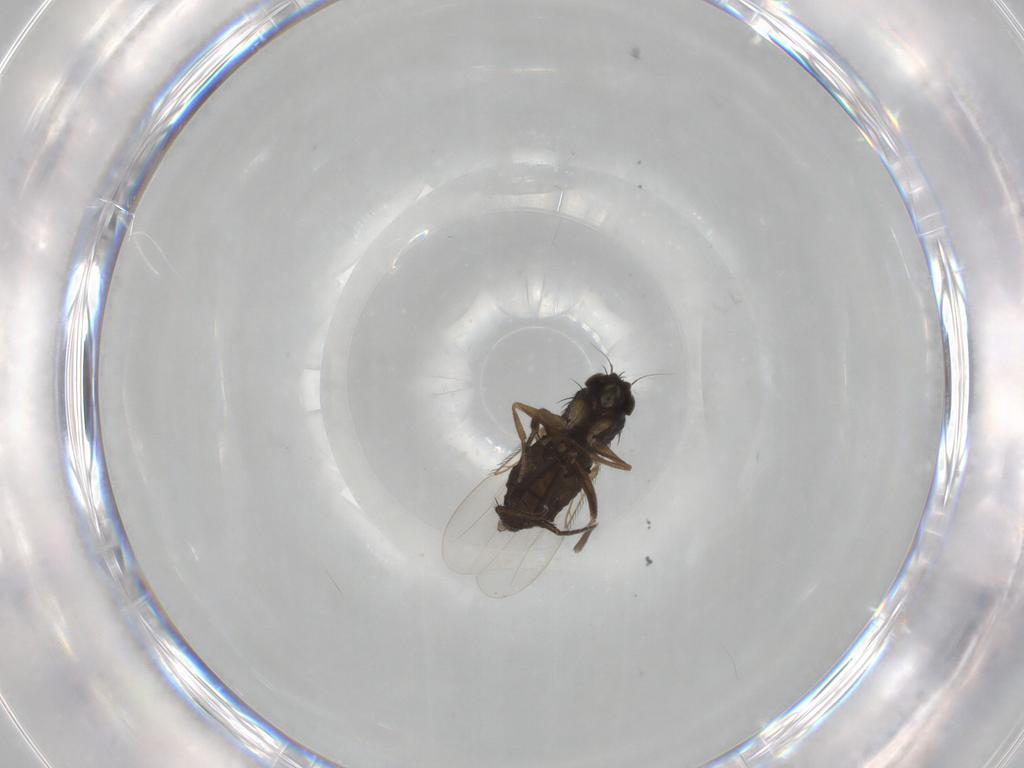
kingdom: Animalia
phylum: Arthropoda
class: Insecta
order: Diptera
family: Phoridae
